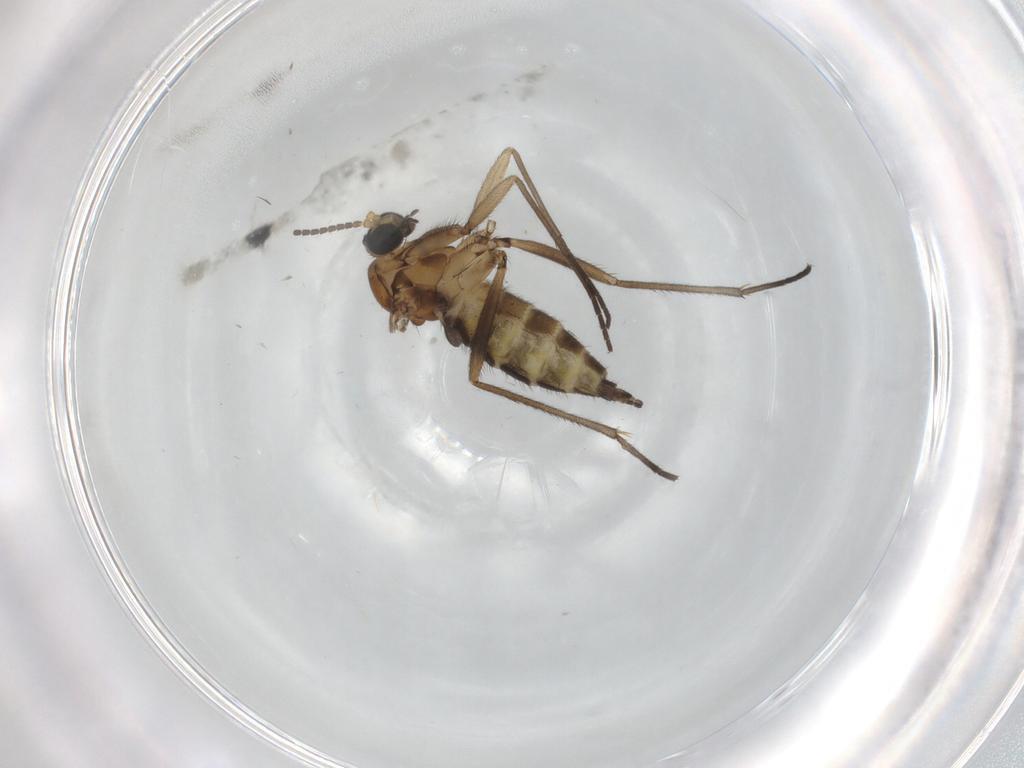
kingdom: Animalia
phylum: Arthropoda
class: Insecta
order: Diptera
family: Sciaridae
